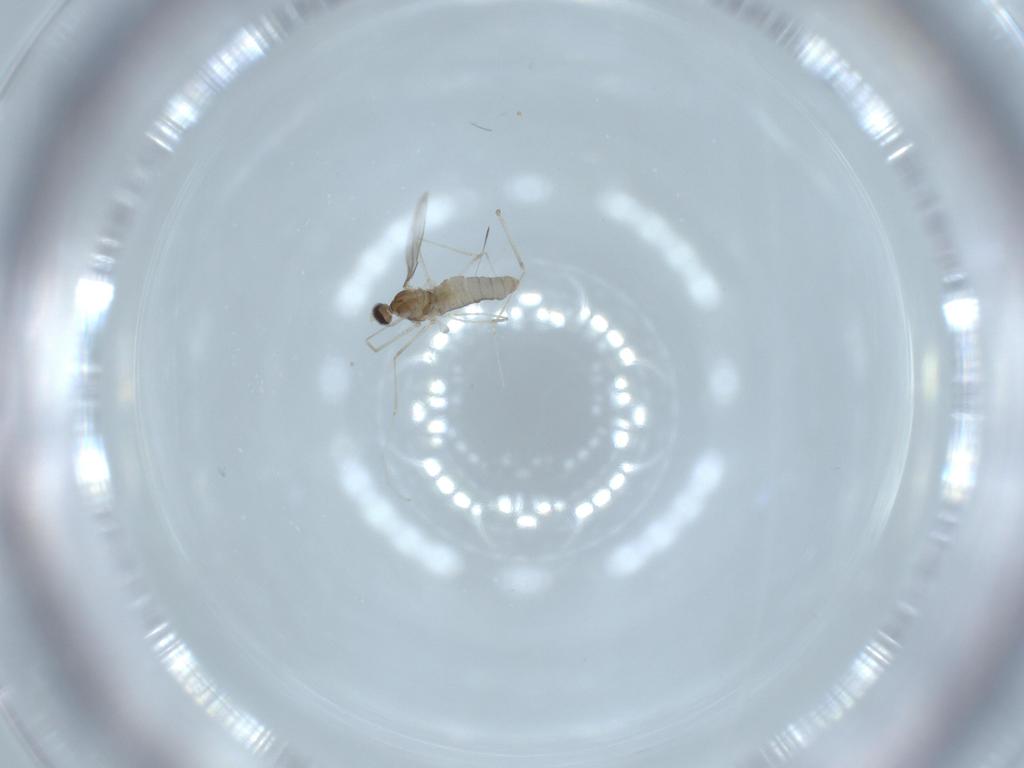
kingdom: Animalia
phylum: Arthropoda
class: Insecta
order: Diptera
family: Cecidomyiidae
